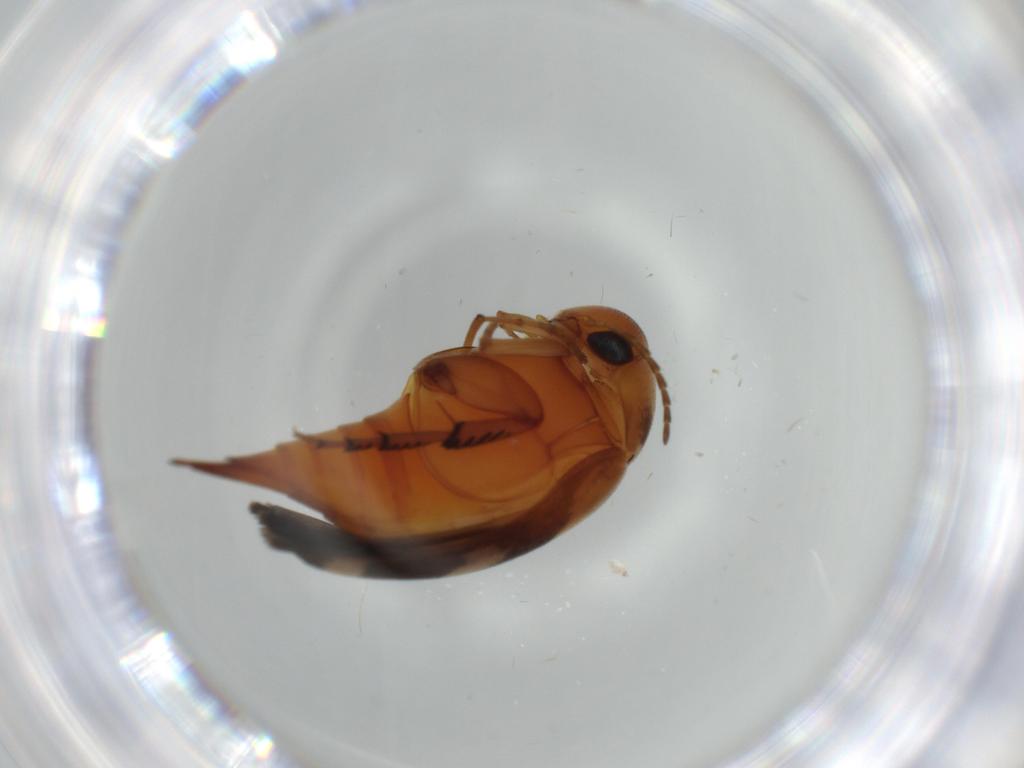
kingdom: Animalia
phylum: Arthropoda
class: Insecta
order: Coleoptera
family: Mordellidae
